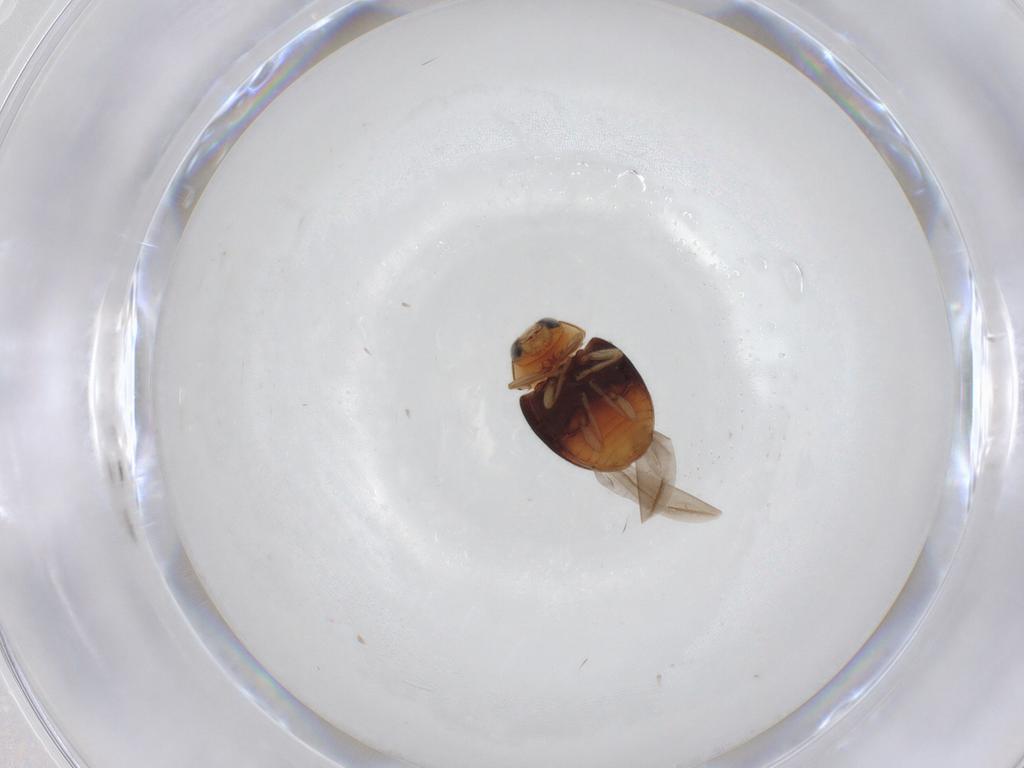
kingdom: Animalia
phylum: Arthropoda
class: Insecta
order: Coleoptera
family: Coccinellidae
